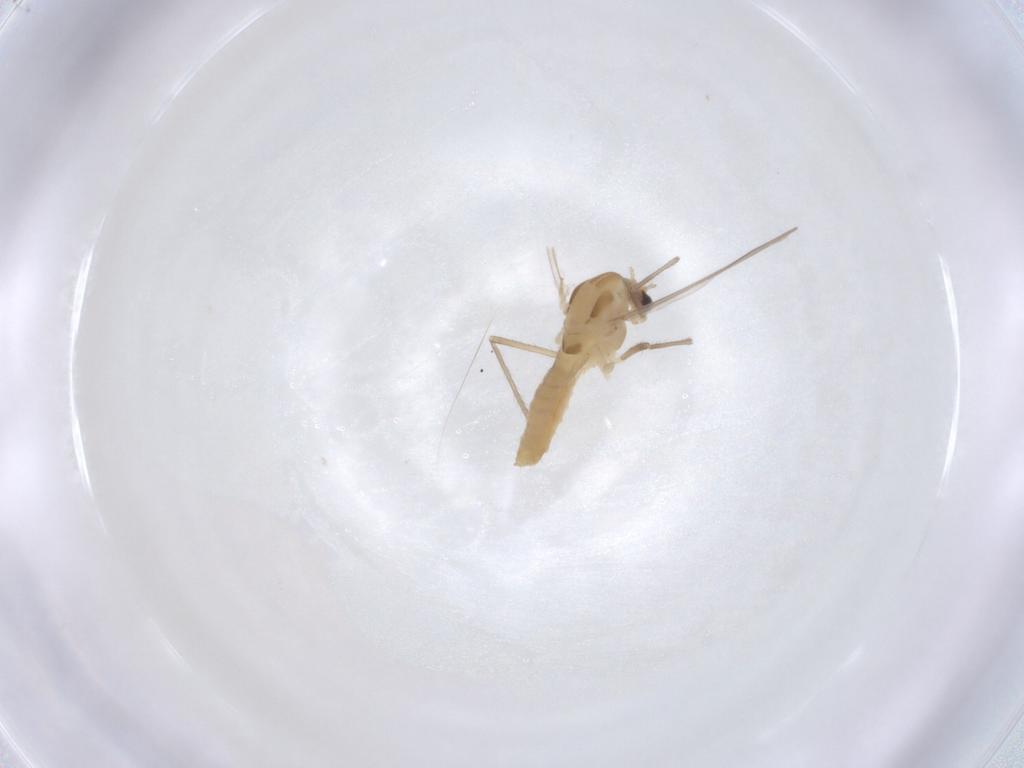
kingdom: Animalia
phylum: Arthropoda
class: Insecta
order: Diptera
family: Chironomidae
